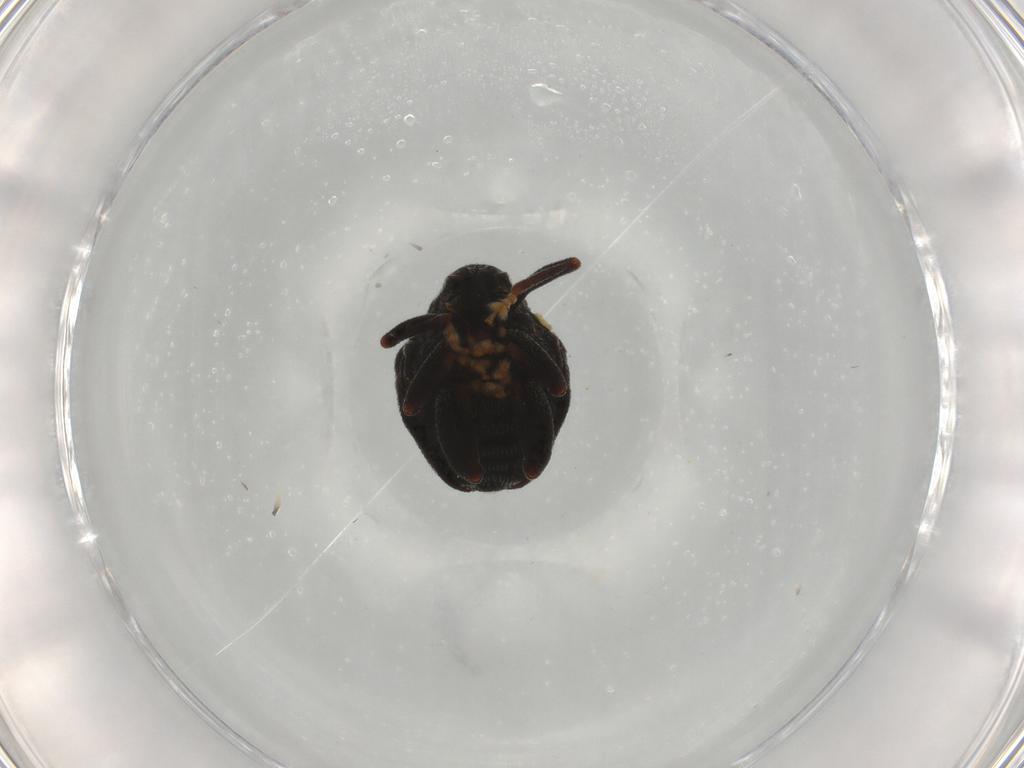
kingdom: Animalia
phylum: Arthropoda
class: Insecta
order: Coleoptera
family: Curculionidae
